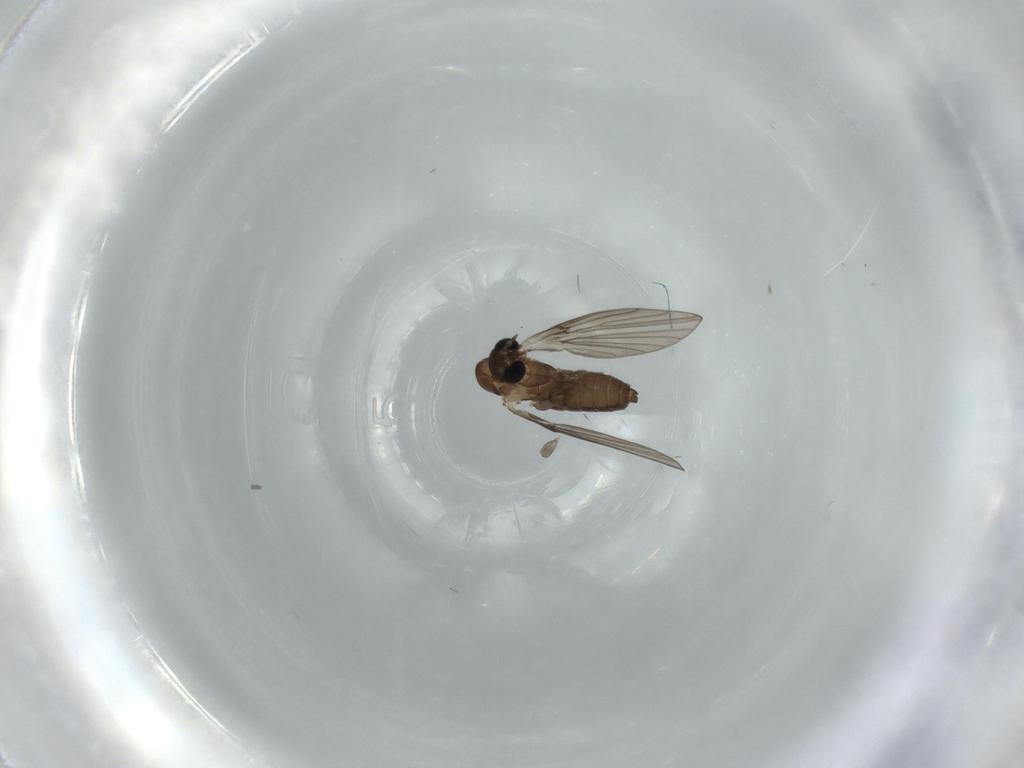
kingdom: Animalia
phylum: Arthropoda
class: Insecta
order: Diptera
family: Psychodidae
